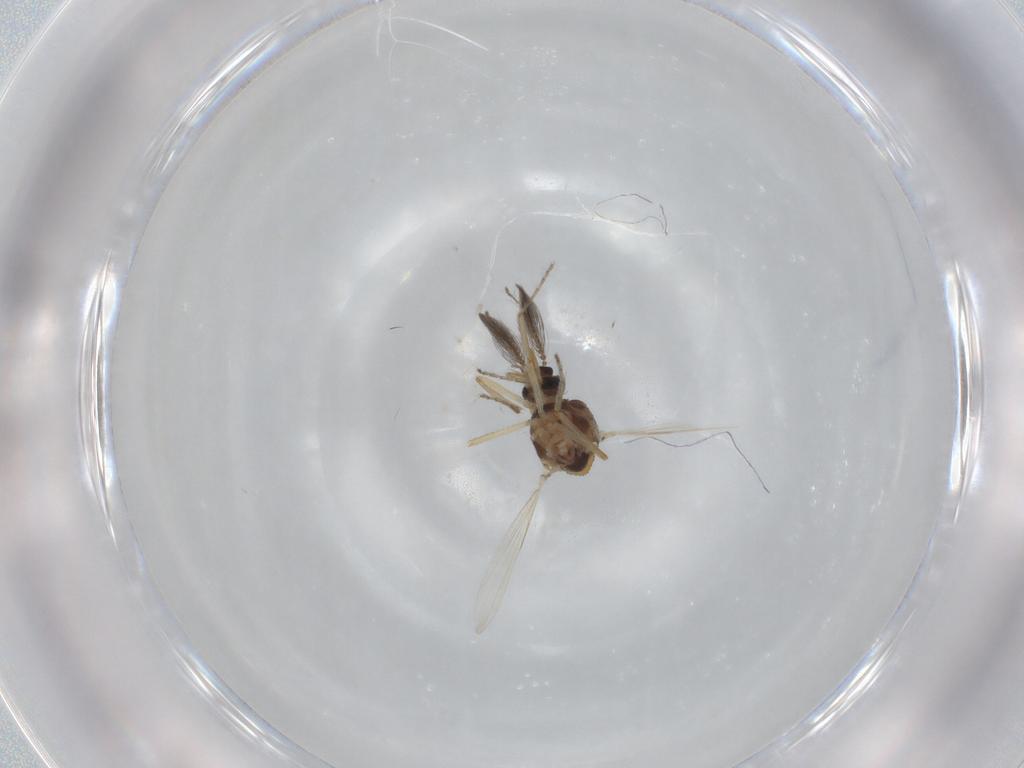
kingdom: Animalia
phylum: Arthropoda
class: Insecta
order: Diptera
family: Ceratopogonidae
